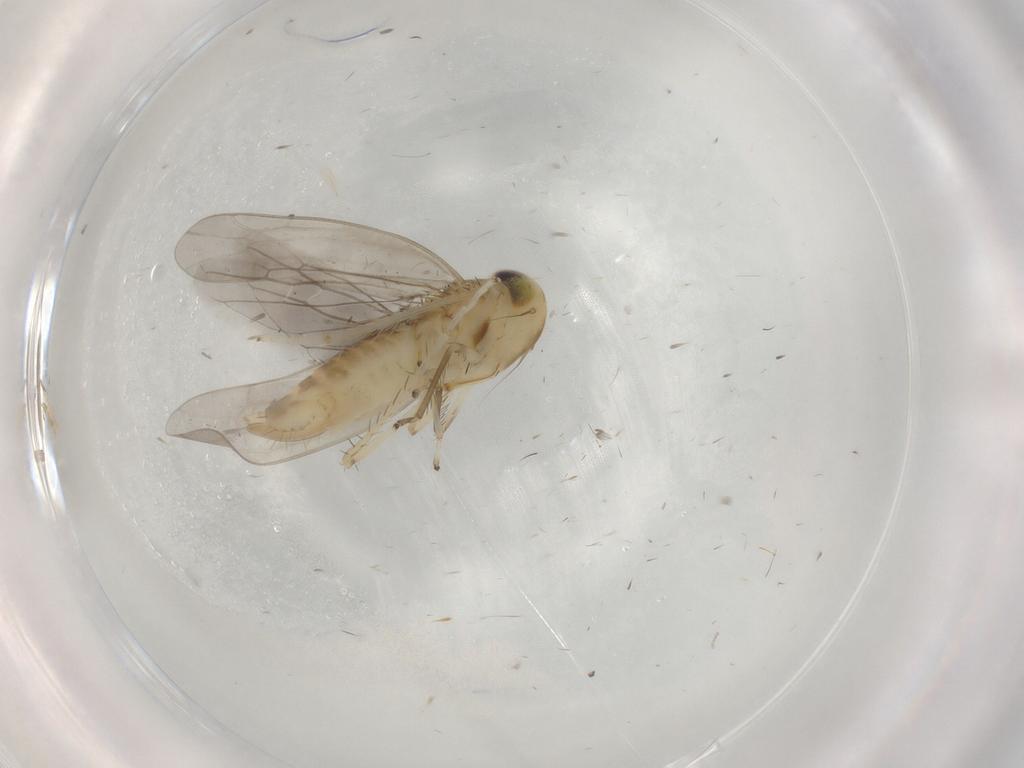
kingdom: Animalia
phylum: Arthropoda
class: Insecta
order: Hemiptera
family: Cicadellidae
